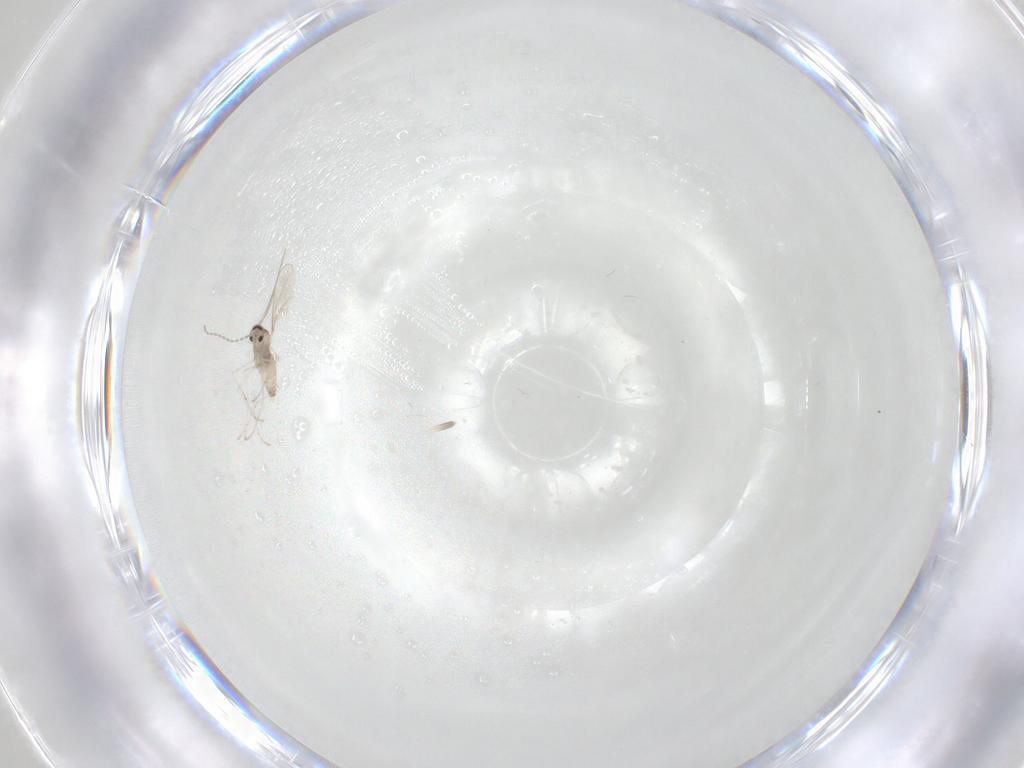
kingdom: Animalia
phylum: Arthropoda
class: Insecta
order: Diptera
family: Cecidomyiidae
